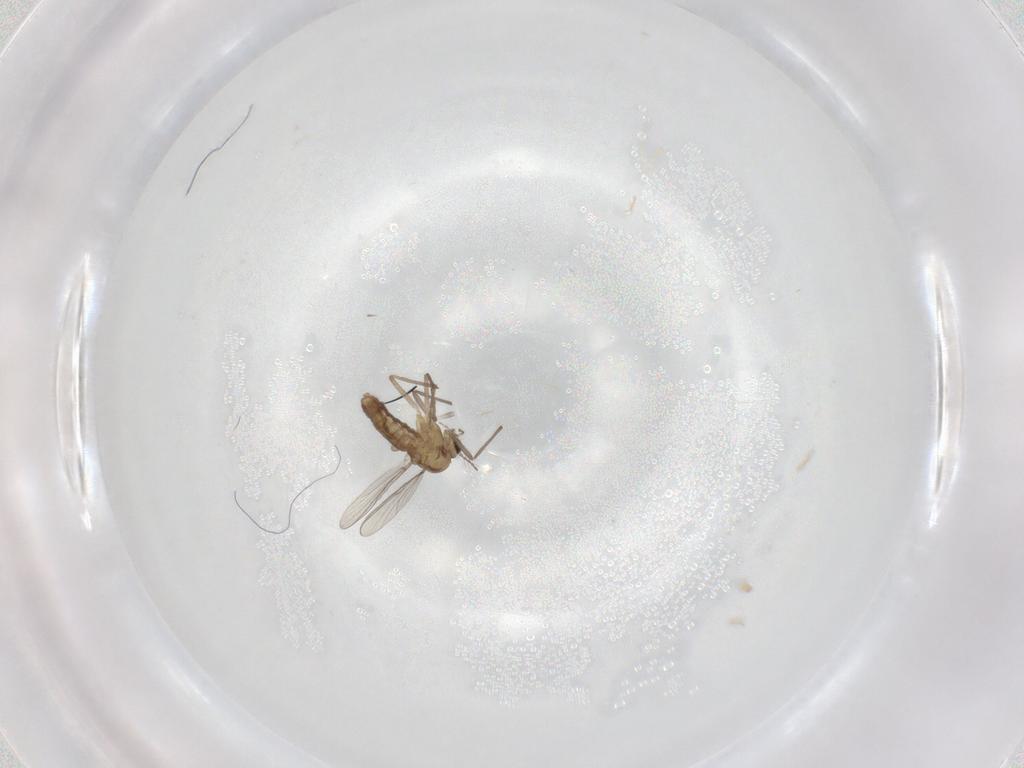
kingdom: Animalia
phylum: Arthropoda
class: Insecta
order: Diptera
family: Chironomidae
